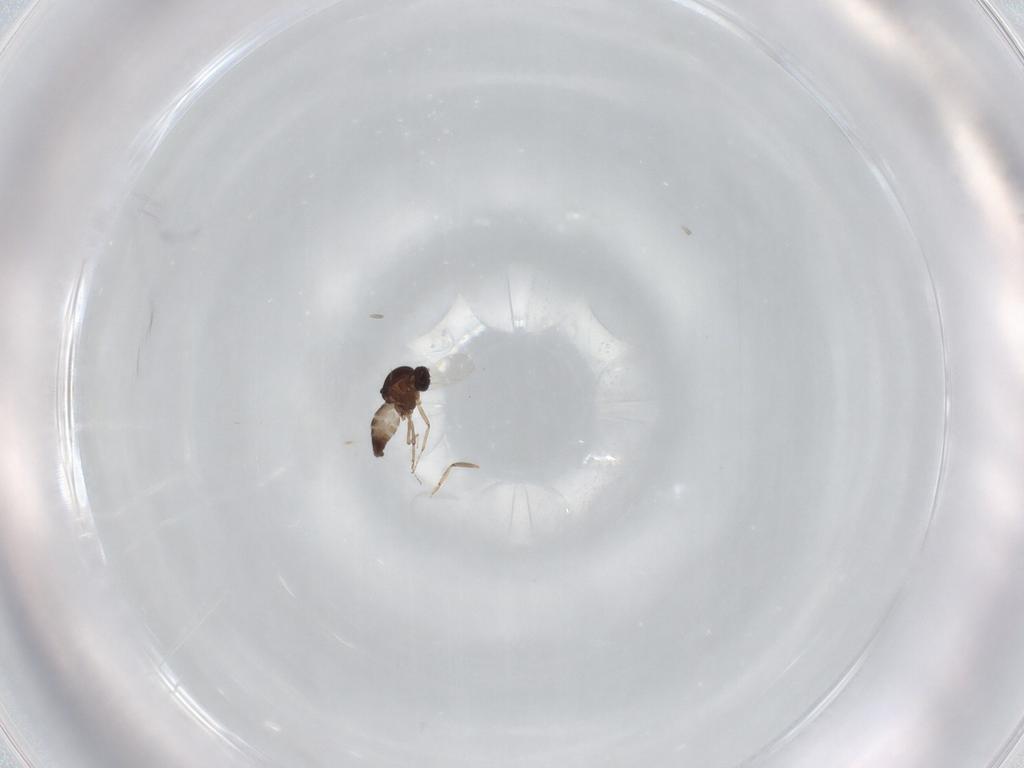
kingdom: Animalia
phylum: Arthropoda
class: Insecta
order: Diptera
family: Ceratopogonidae
